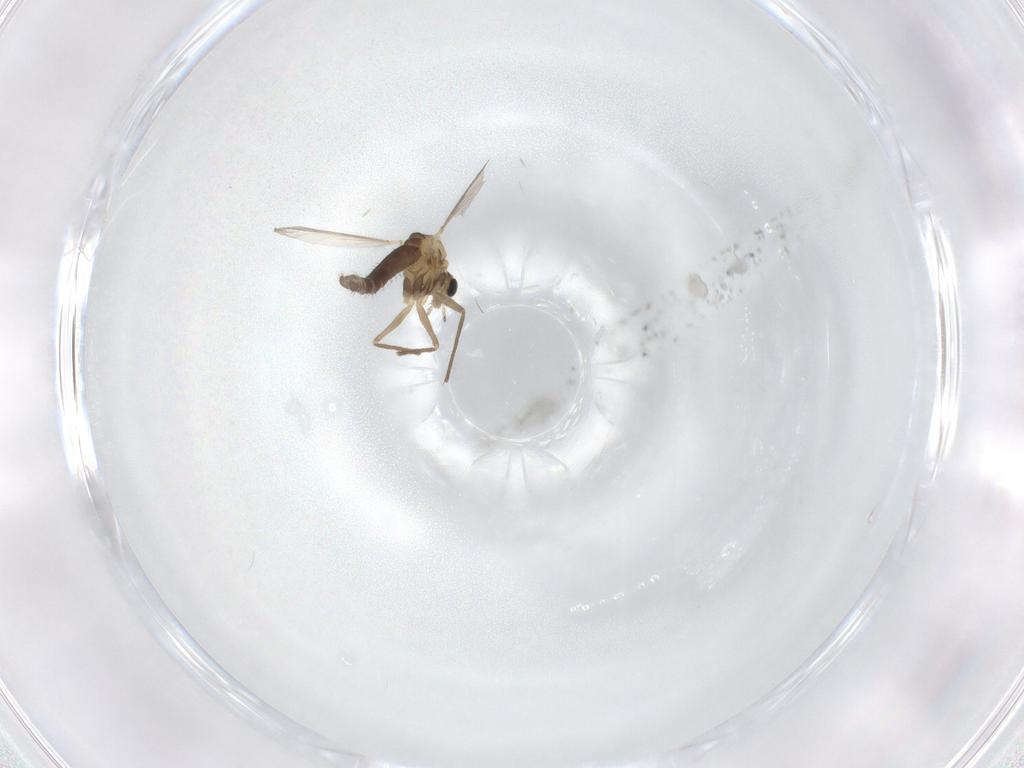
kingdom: Animalia
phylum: Arthropoda
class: Insecta
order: Diptera
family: Chironomidae
